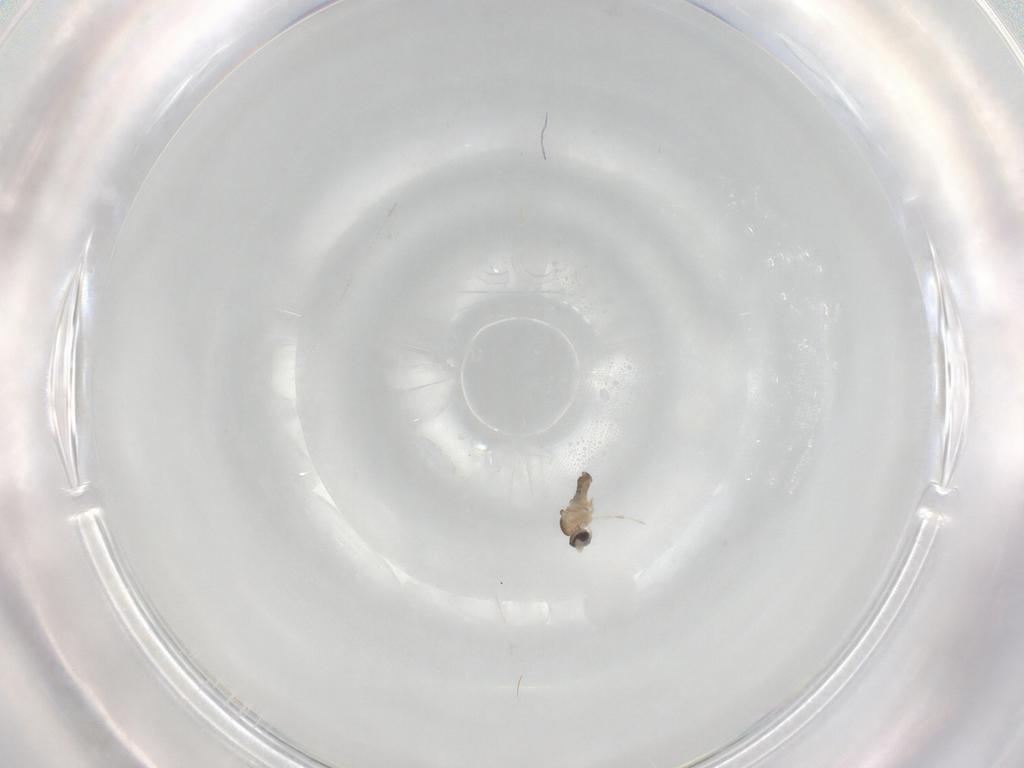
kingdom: Animalia
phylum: Arthropoda
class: Insecta
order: Diptera
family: Cecidomyiidae
